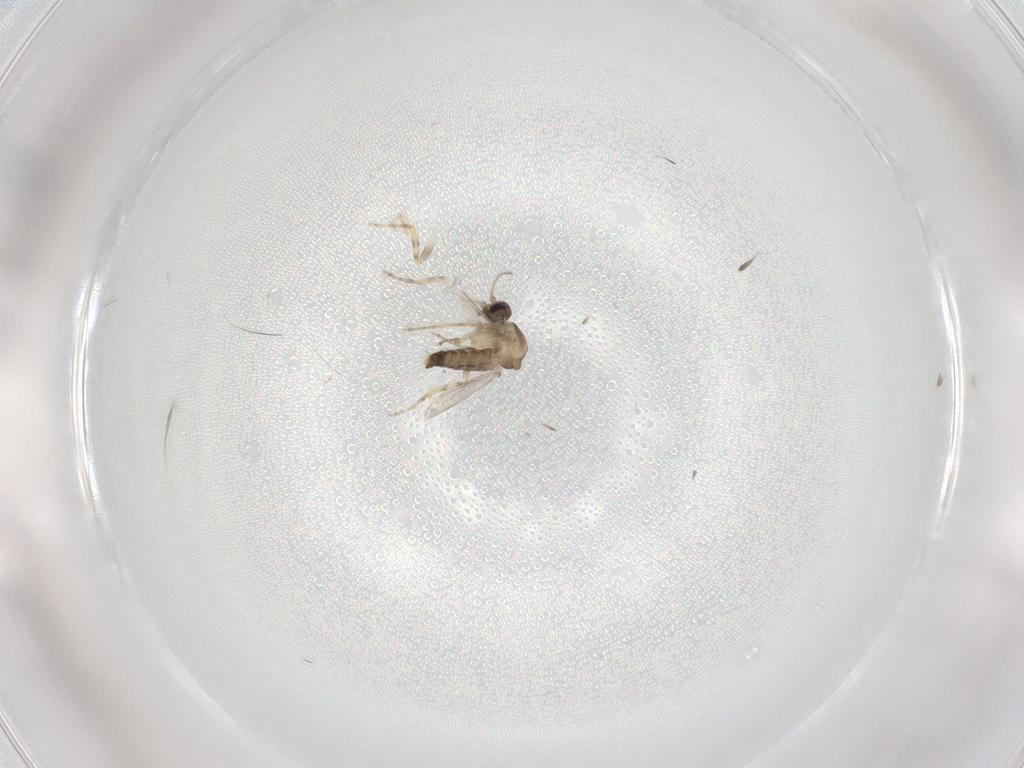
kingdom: Animalia
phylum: Arthropoda
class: Insecta
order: Diptera
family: Ceratopogonidae
